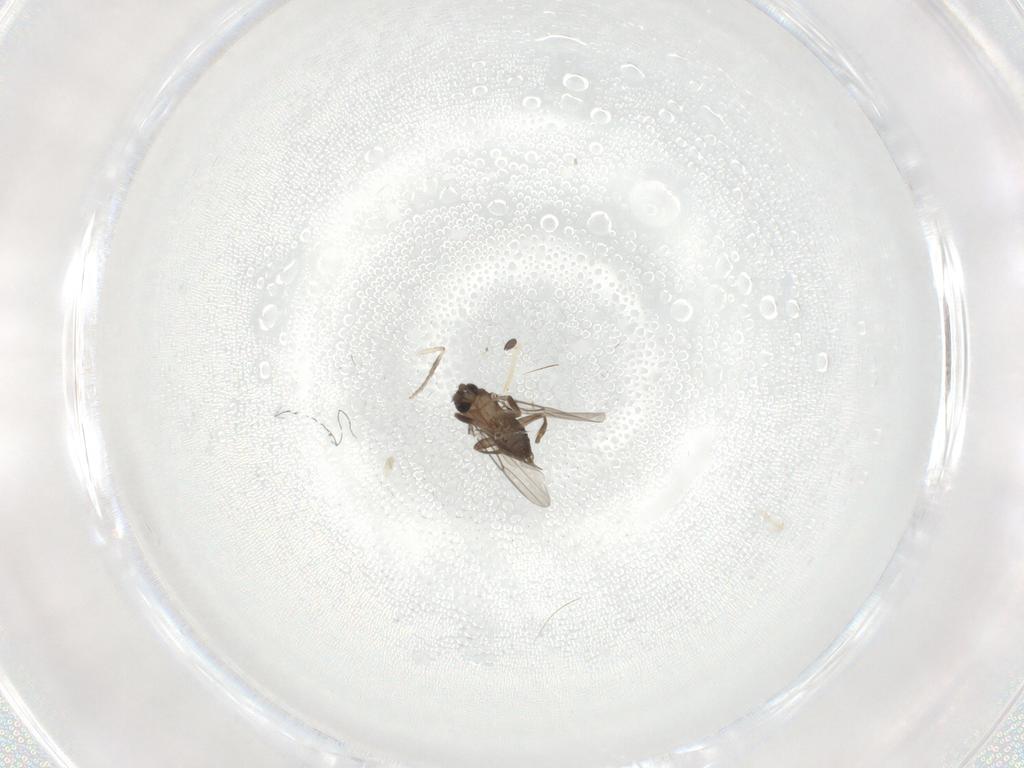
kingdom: Animalia
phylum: Arthropoda
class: Insecta
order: Diptera
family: Phoridae
